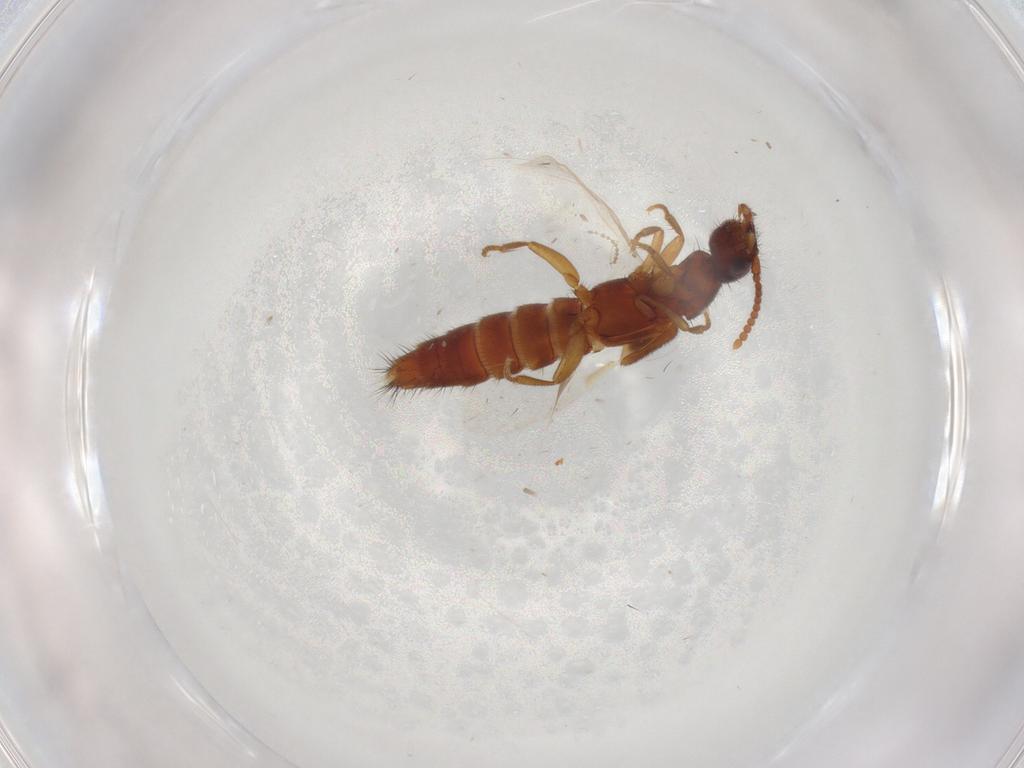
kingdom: Animalia
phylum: Arthropoda
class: Insecta
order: Coleoptera
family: Staphylinidae
